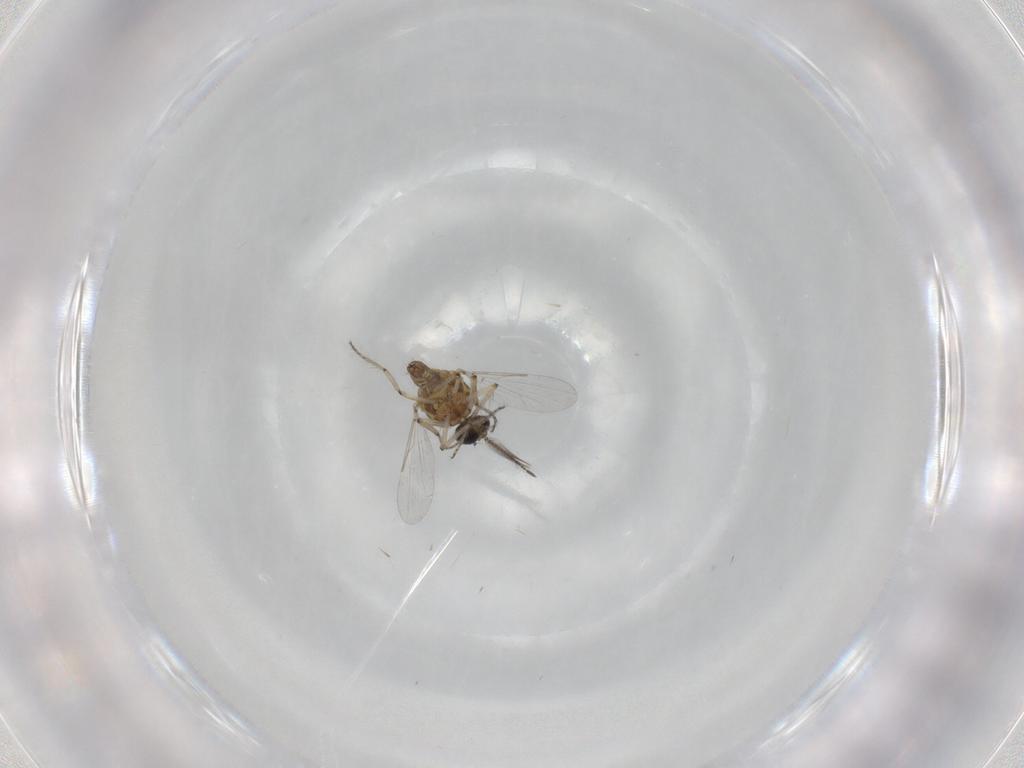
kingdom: Animalia
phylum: Arthropoda
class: Insecta
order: Diptera
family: Ceratopogonidae
